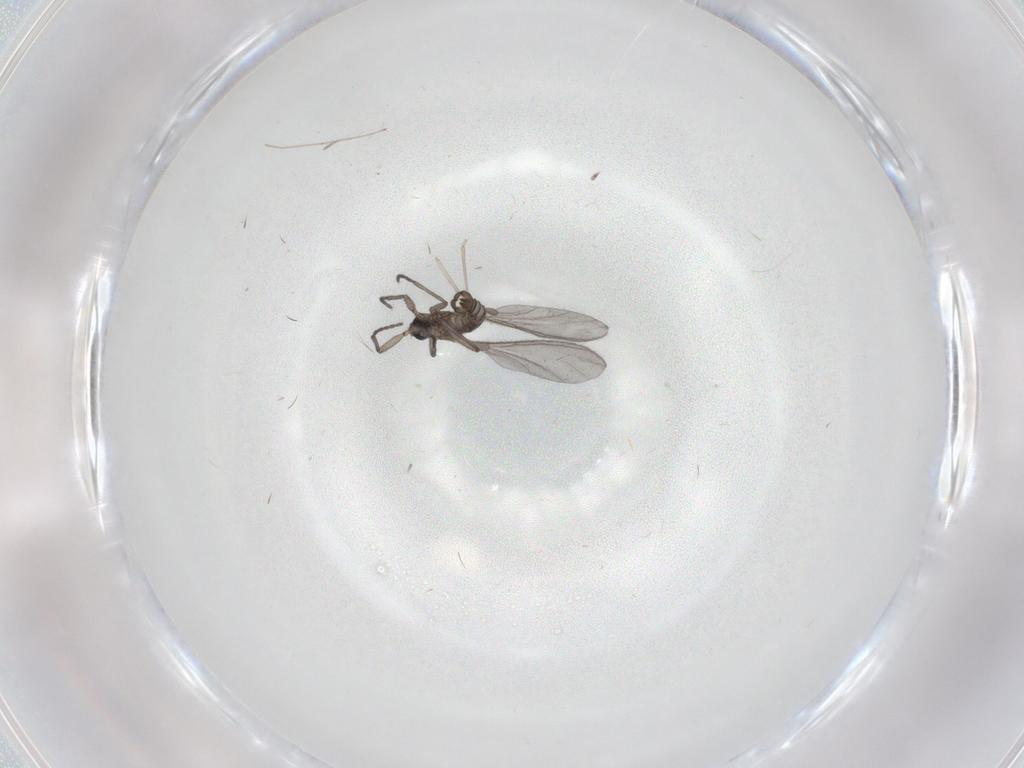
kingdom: Animalia
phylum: Arthropoda
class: Insecta
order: Diptera
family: Sciaridae
